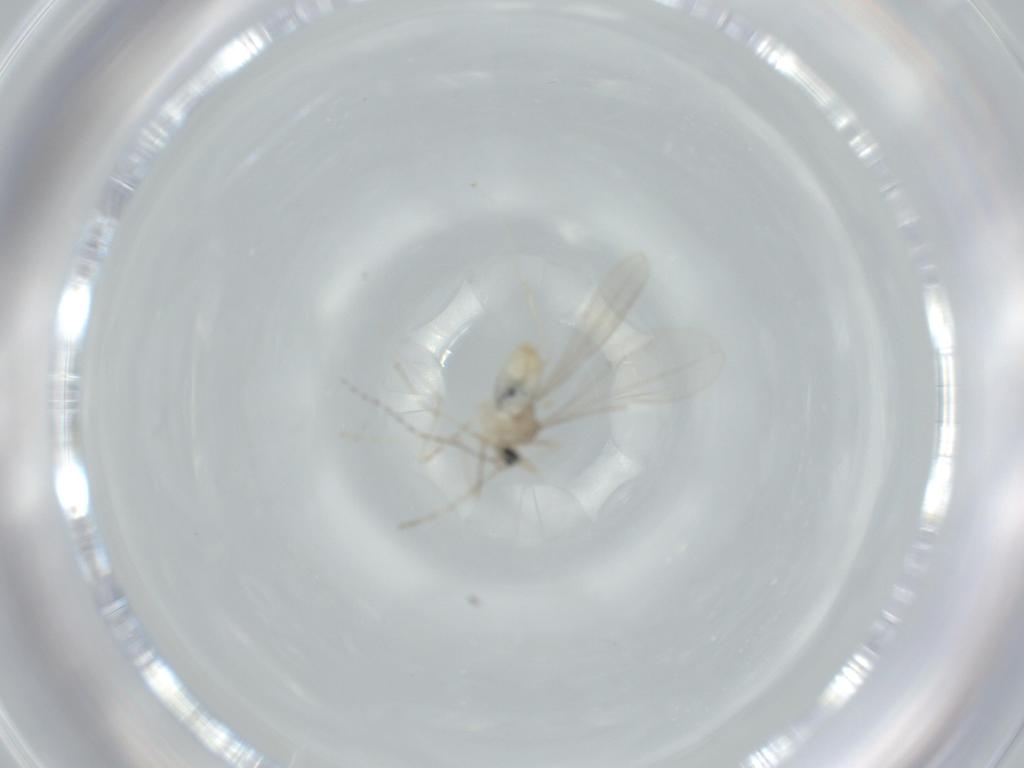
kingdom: Animalia
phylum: Arthropoda
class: Insecta
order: Diptera
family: Cecidomyiidae
